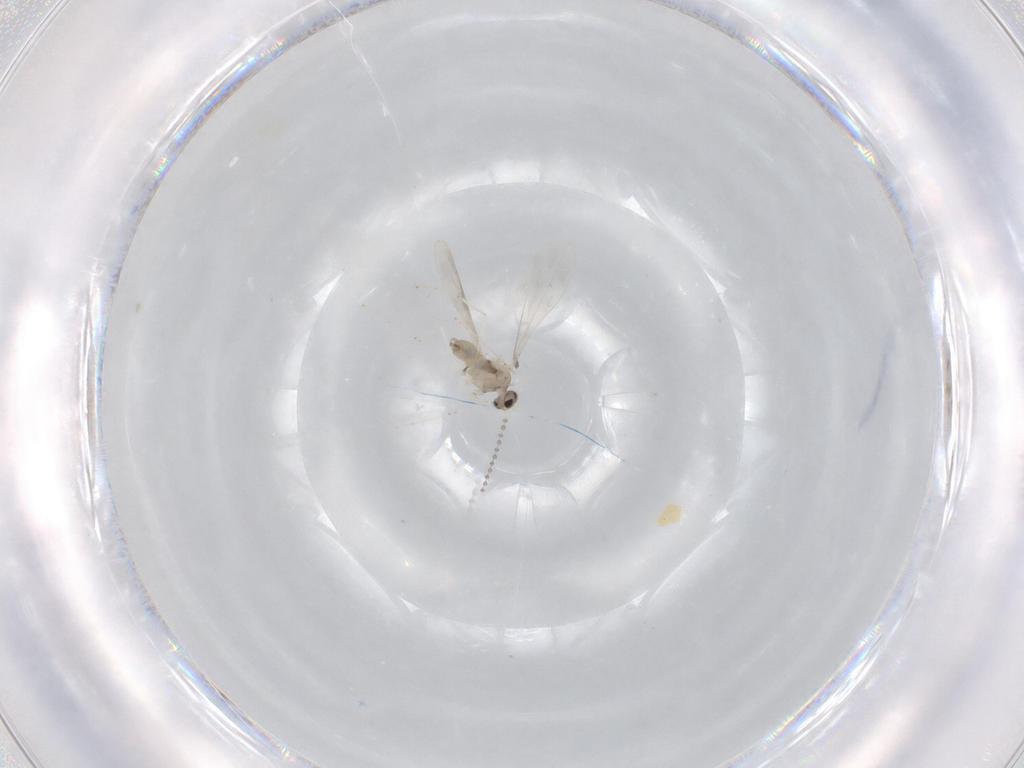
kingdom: Animalia
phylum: Arthropoda
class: Insecta
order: Diptera
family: Cecidomyiidae
